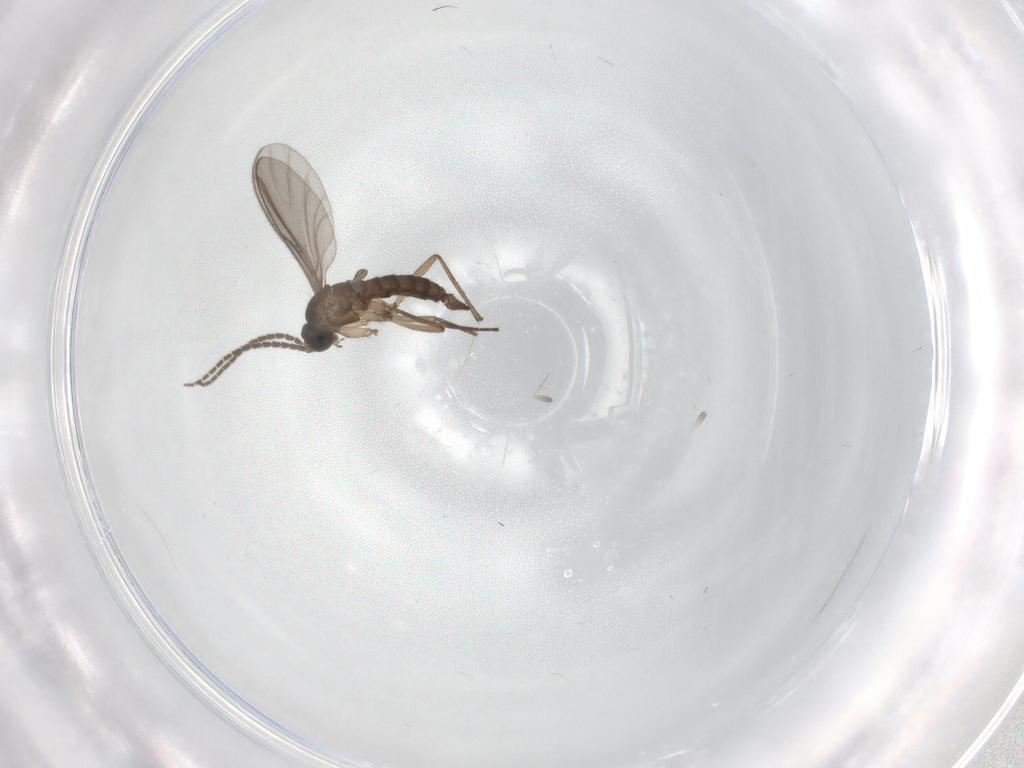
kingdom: Animalia
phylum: Arthropoda
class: Insecta
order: Diptera
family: Sciaridae
